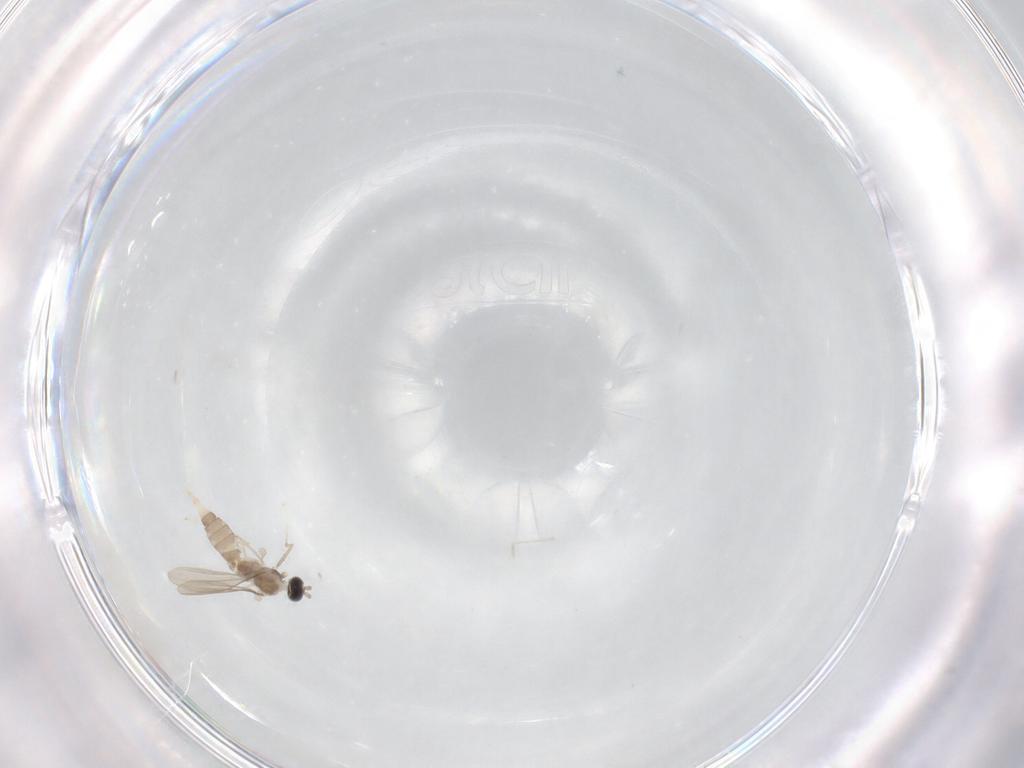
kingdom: Animalia
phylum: Arthropoda
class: Insecta
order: Diptera
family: Cecidomyiidae
